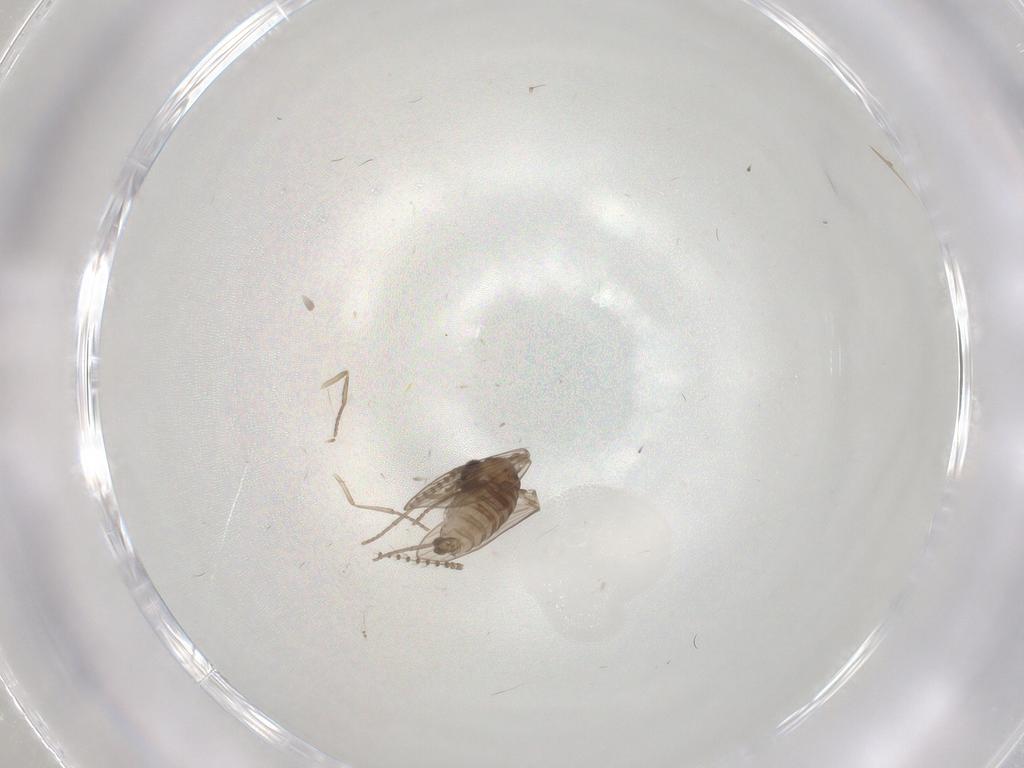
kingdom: Animalia
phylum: Arthropoda
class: Insecta
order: Diptera
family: Psychodidae
